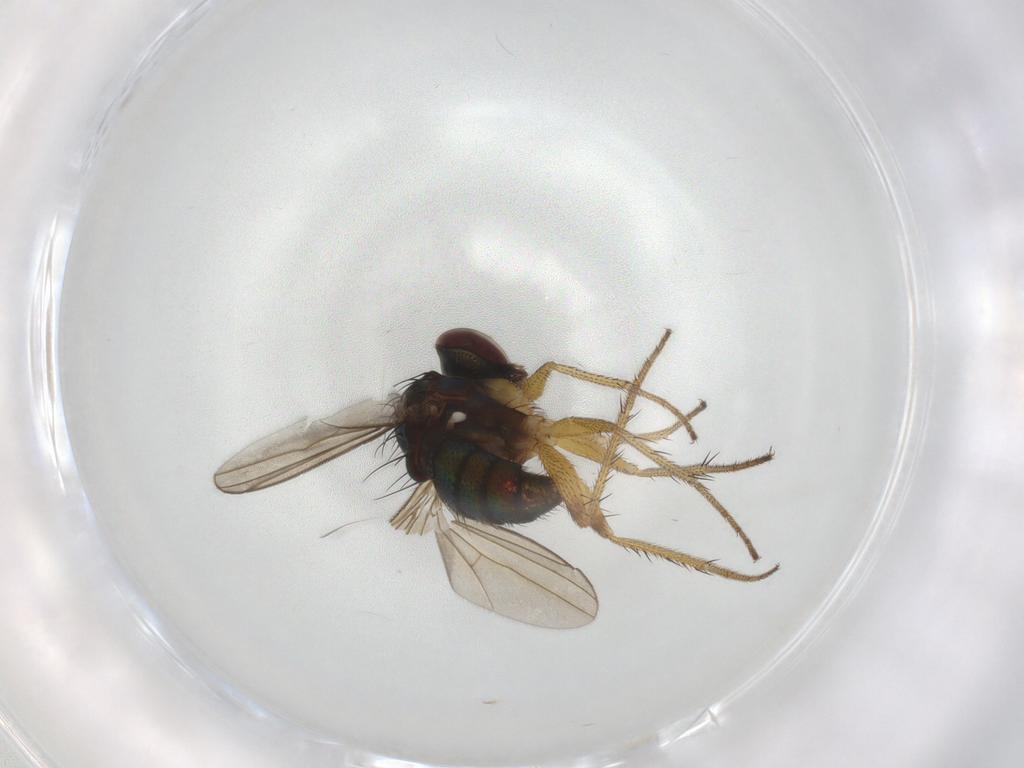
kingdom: Animalia
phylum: Arthropoda
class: Insecta
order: Diptera
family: Dolichopodidae
